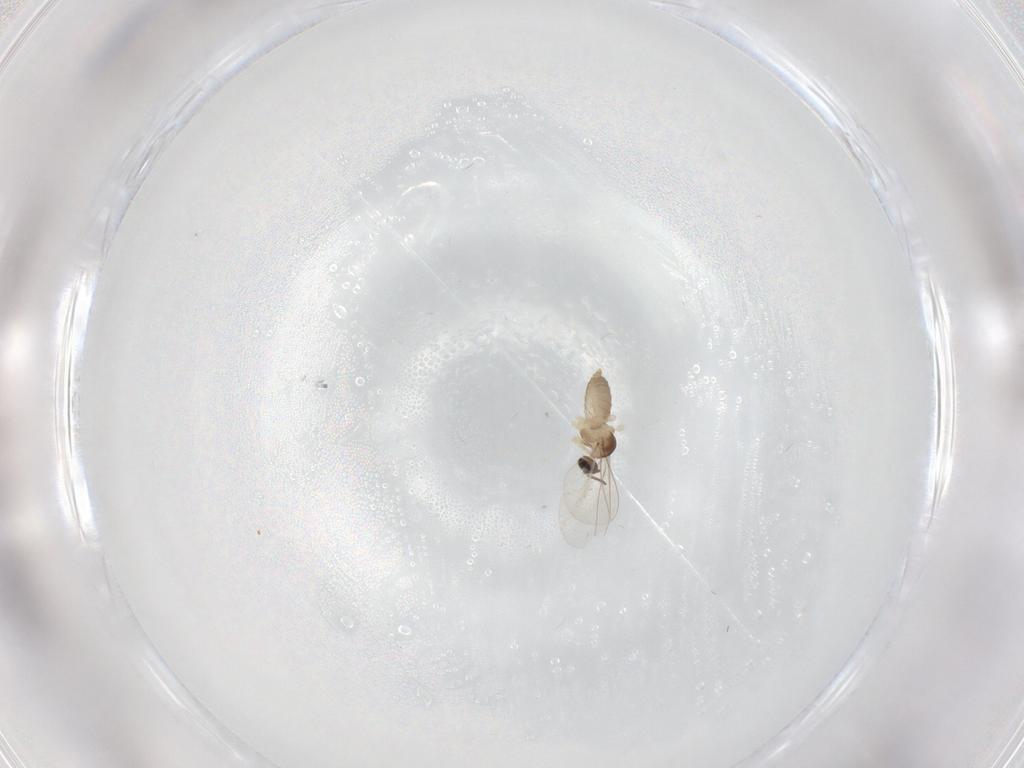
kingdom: Animalia
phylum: Arthropoda
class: Insecta
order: Diptera
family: Cecidomyiidae
